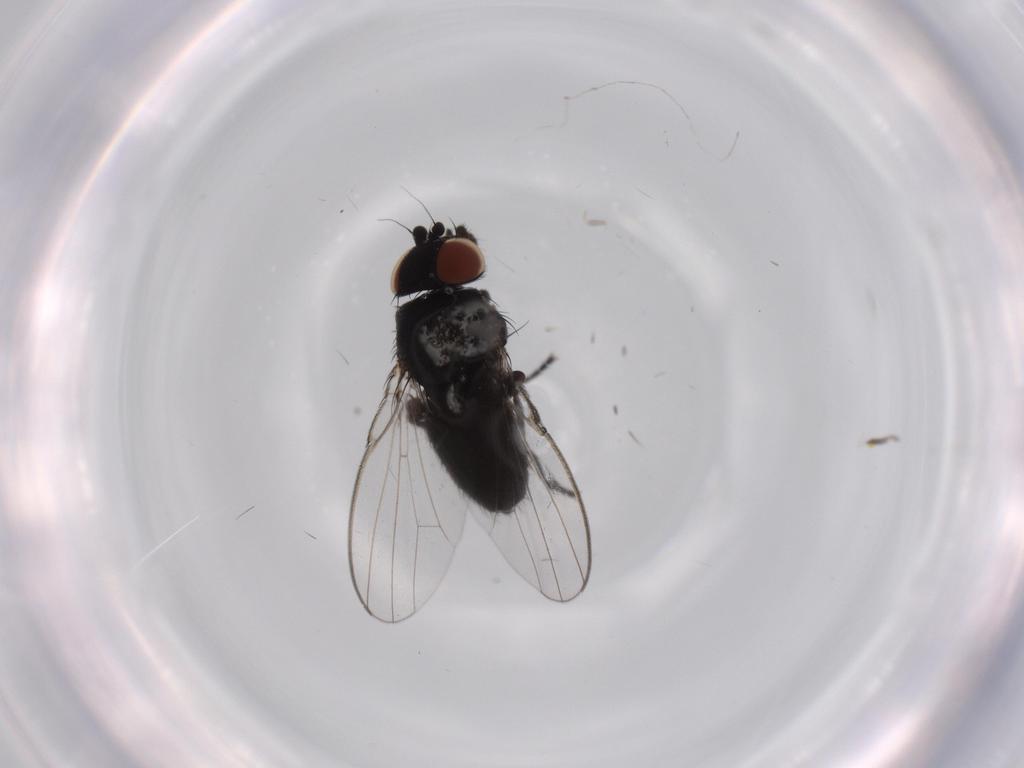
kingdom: Animalia
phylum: Arthropoda
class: Insecta
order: Diptera
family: Milichiidae
